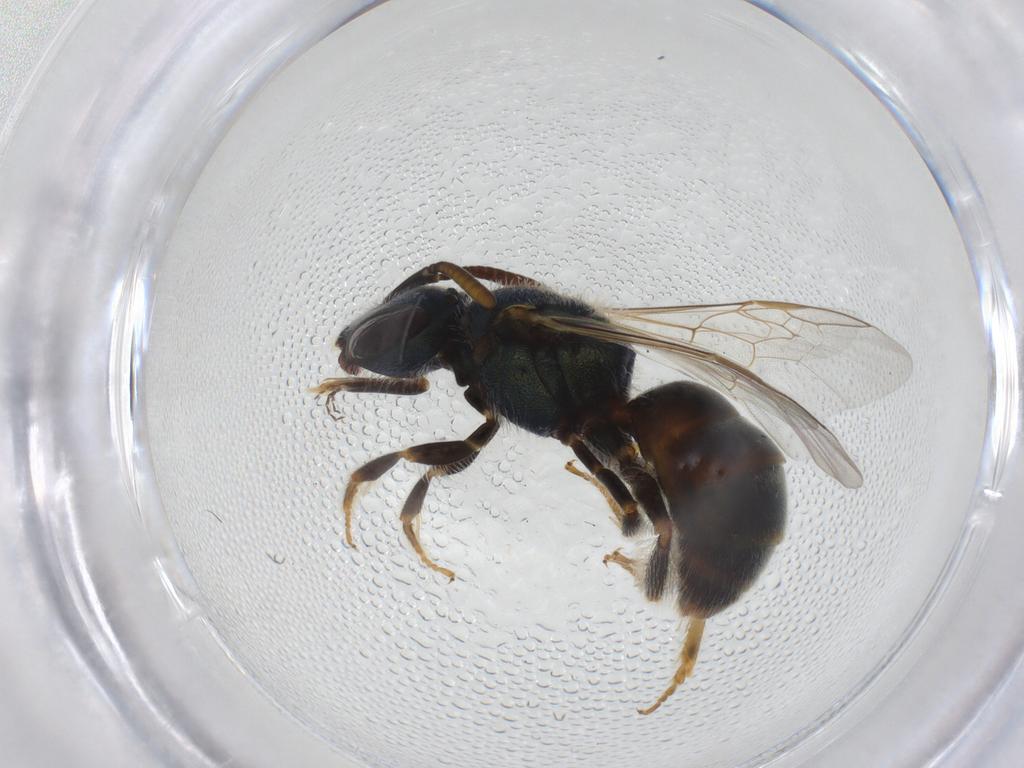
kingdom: Animalia
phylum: Arthropoda
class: Insecta
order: Hymenoptera
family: Halictidae
